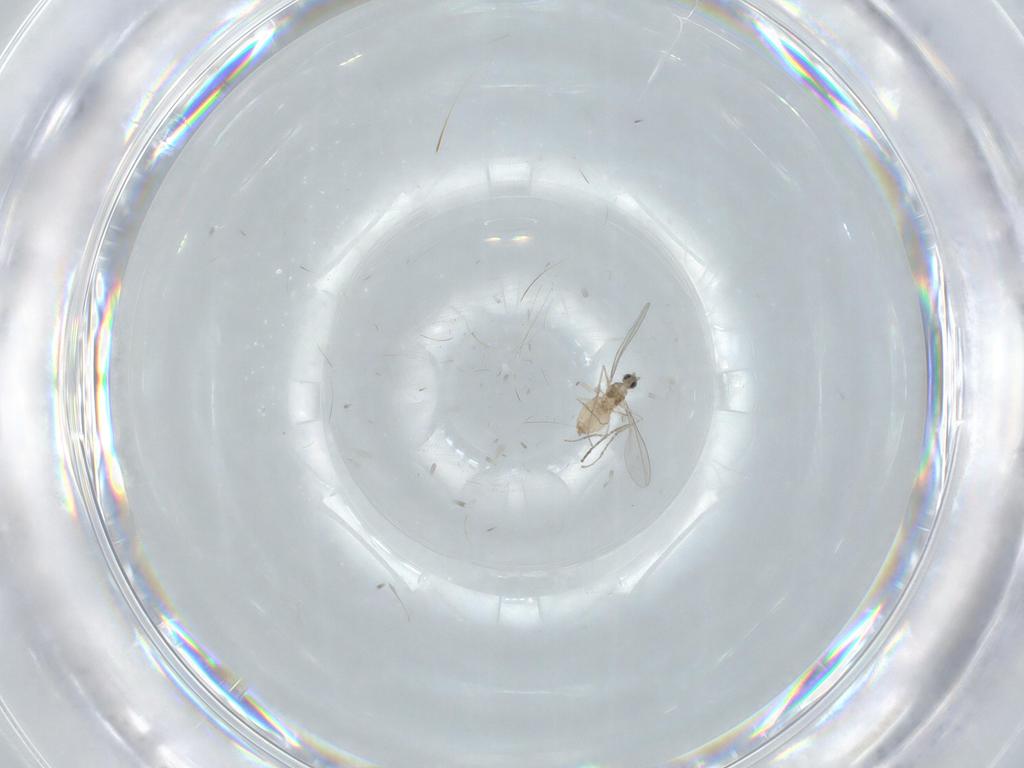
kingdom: Animalia
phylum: Arthropoda
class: Insecta
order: Diptera
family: Cecidomyiidae
